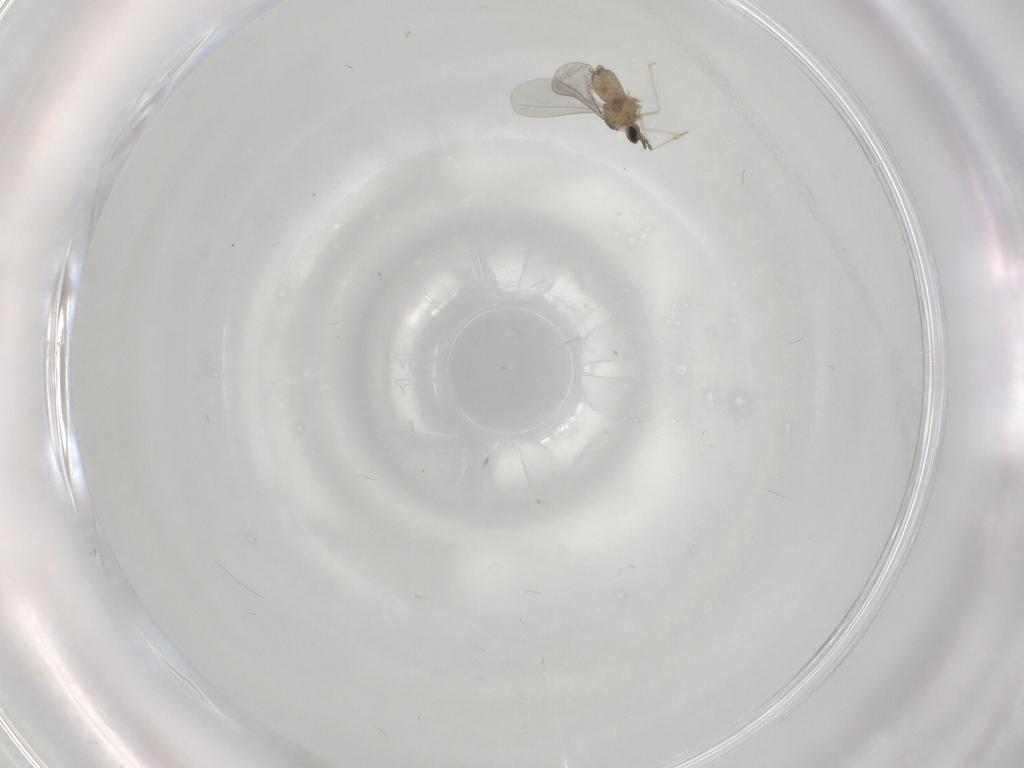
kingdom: Animalia
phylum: Arthropoda
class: Insecta
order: Diptera
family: Cecidomyiidae
